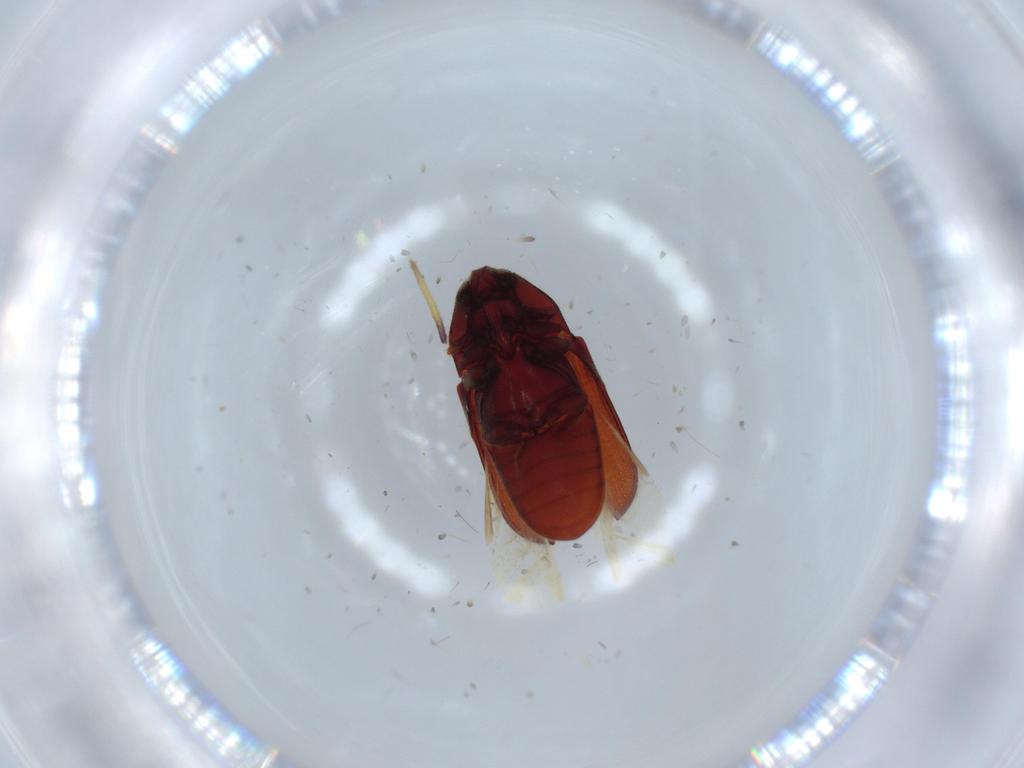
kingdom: Animalia
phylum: Arthropoda
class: Insecta
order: Coleoptera
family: Throscidae
